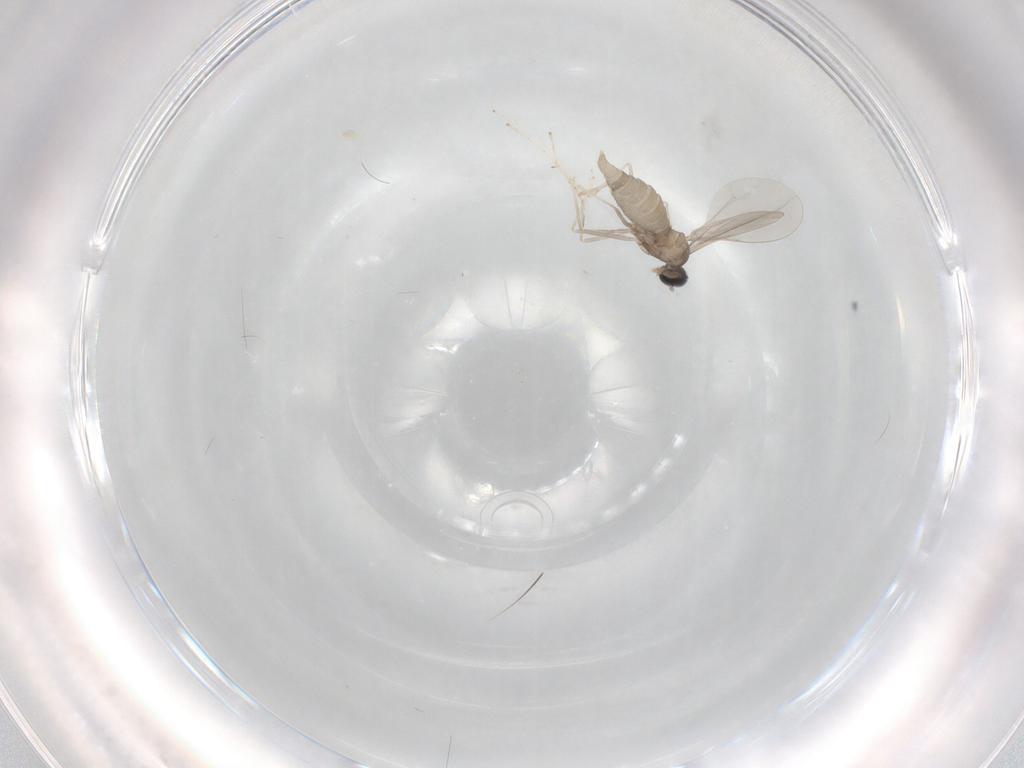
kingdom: Animalia
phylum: Arthropoda
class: Insecta
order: Diptera
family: Cecidomyiidae
